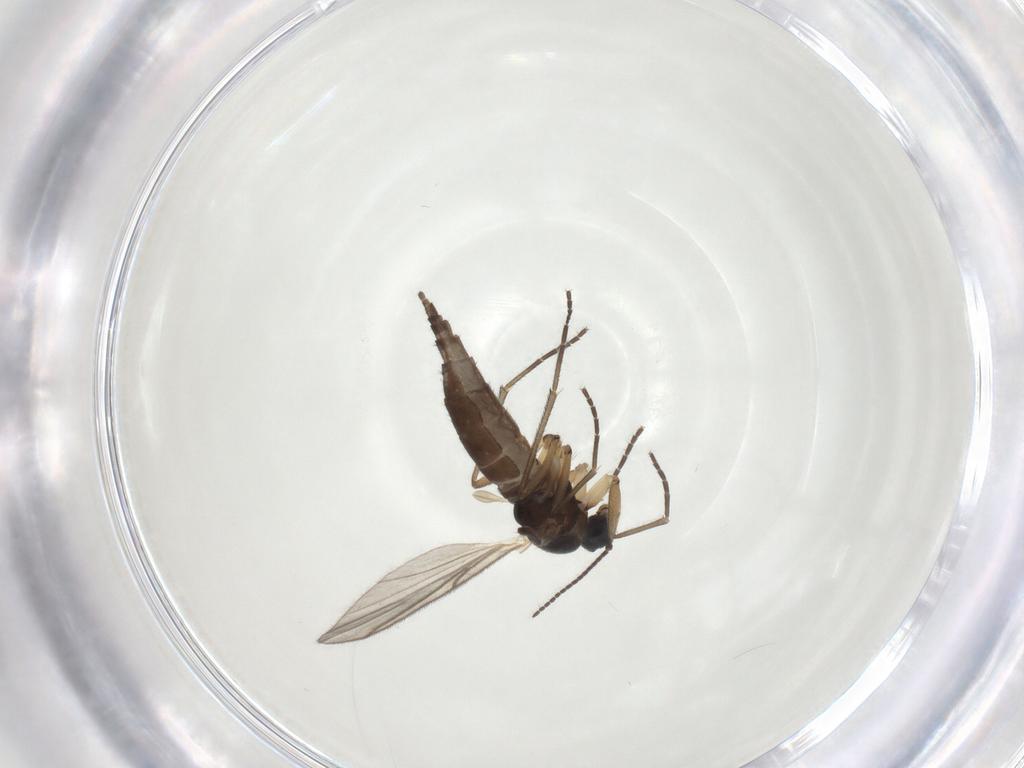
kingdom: Animalia
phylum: Arthropoda
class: Insecta
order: Diptera
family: Sciaridae
